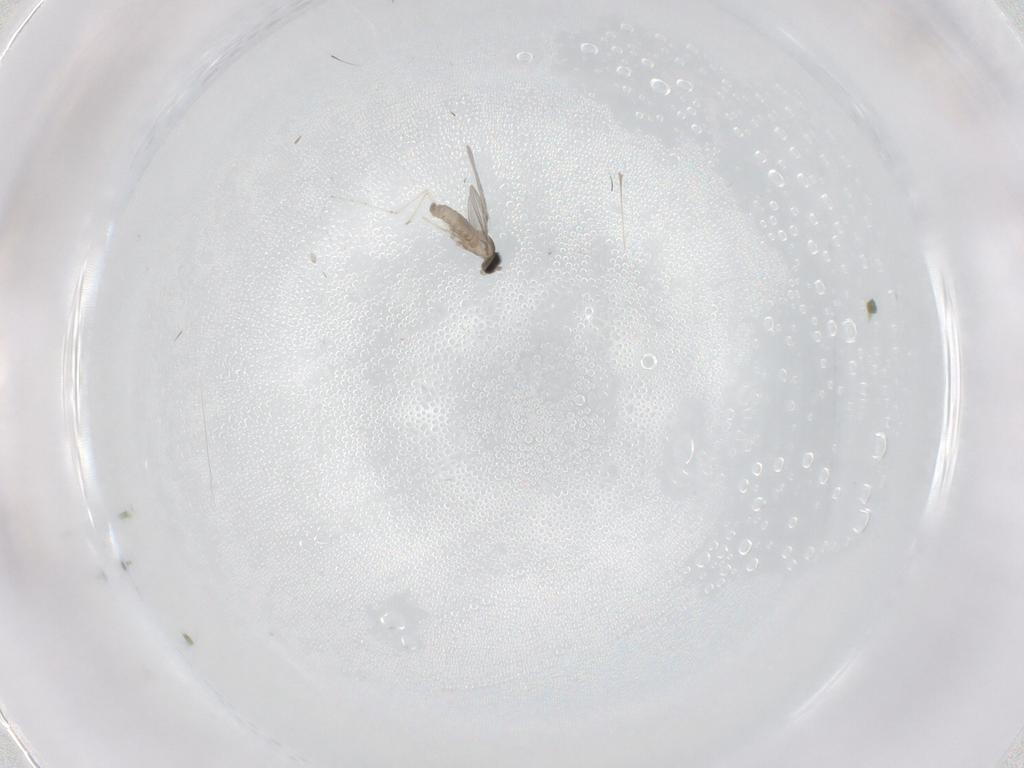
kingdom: Animalia
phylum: Arthropoda
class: Insecta
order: Diptera
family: Cecidomyiidae
